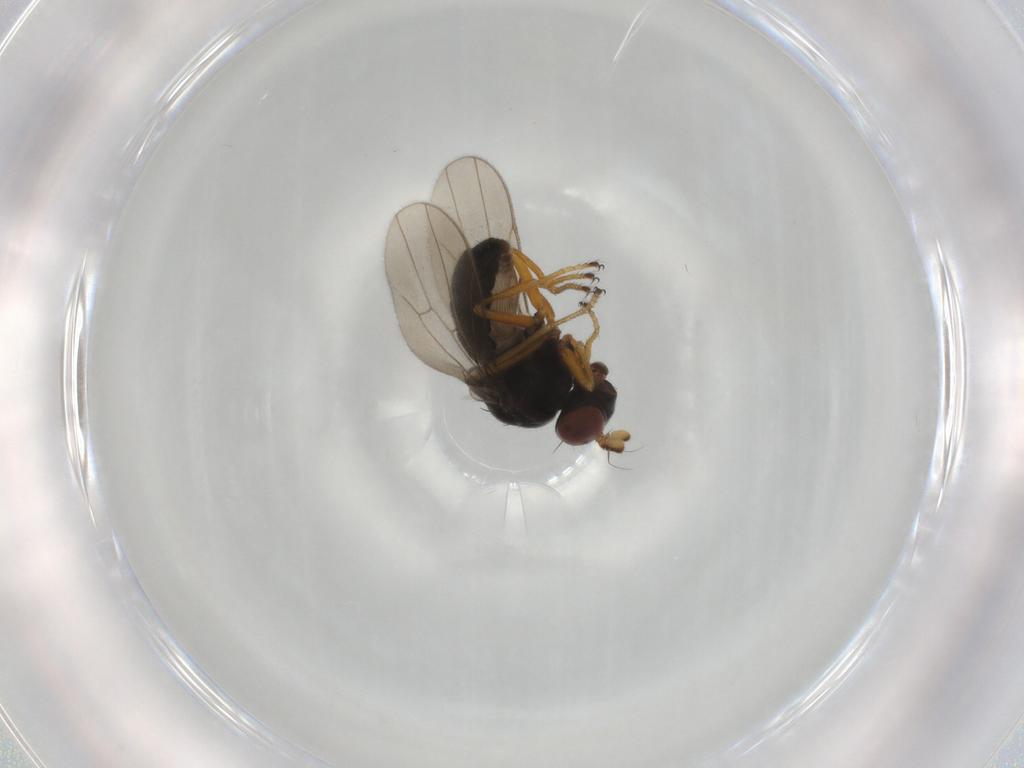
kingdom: Animalia
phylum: Arthropoda
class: Insecta
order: Diptera
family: Ephydridae
